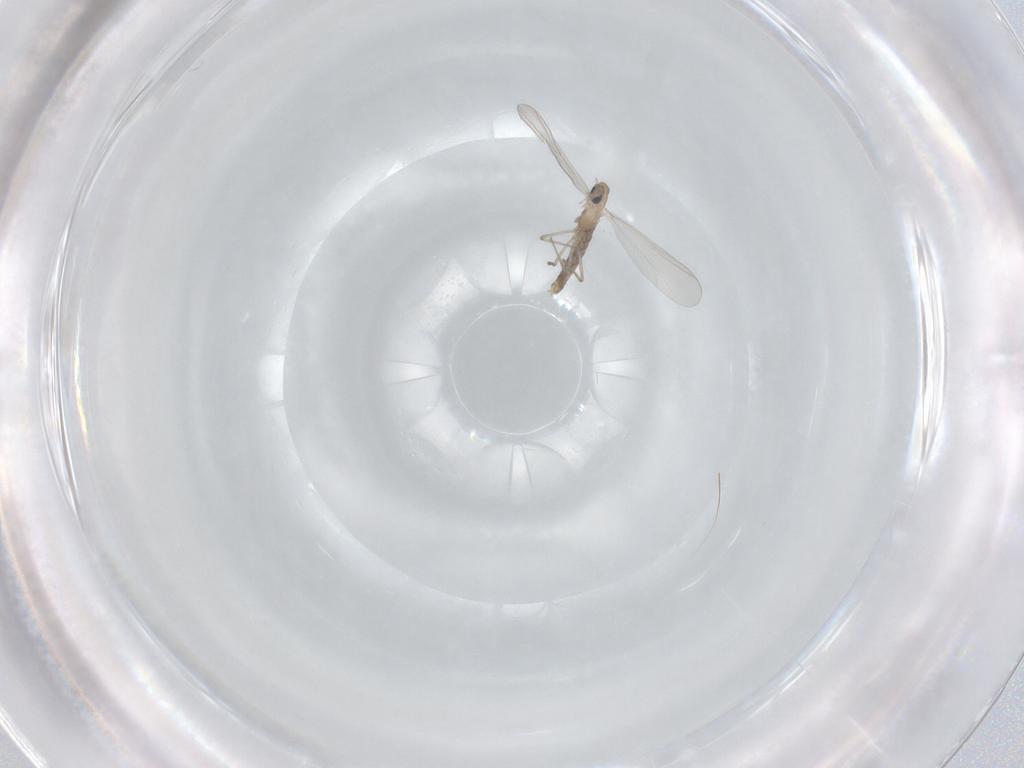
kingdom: Animalia
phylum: Arthropoda
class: Insecta
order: Diptera
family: Chironomidae
